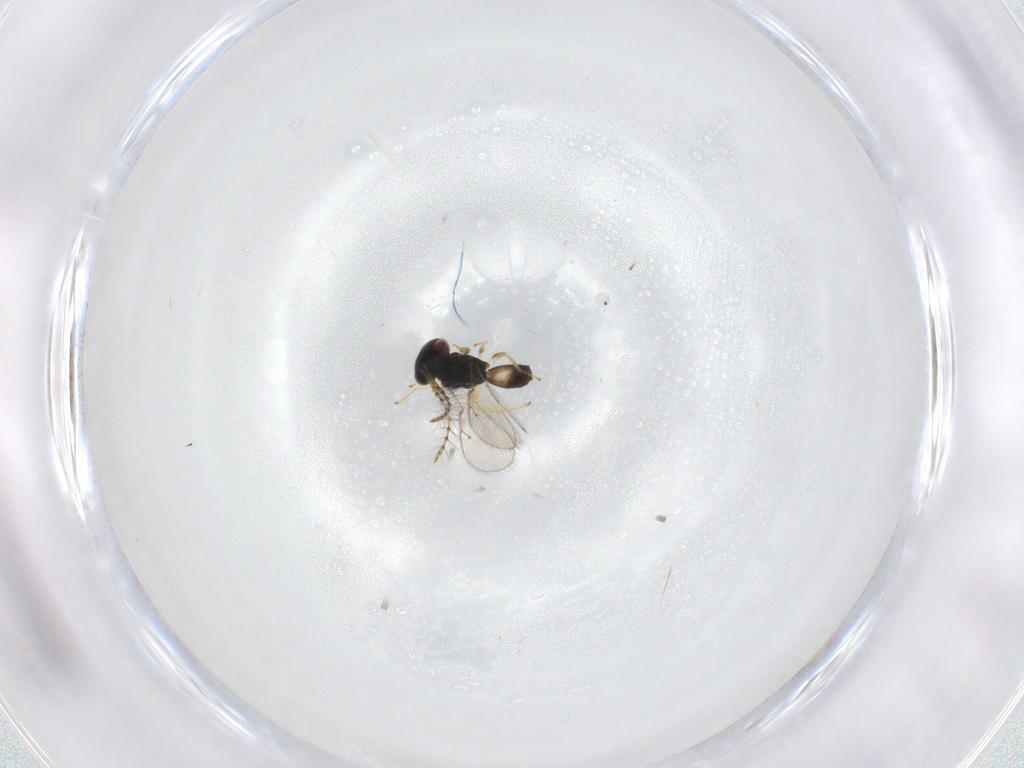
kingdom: Animalia
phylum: Arthropoda
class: Insecta
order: Hymenoptera
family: Pteromalidae
